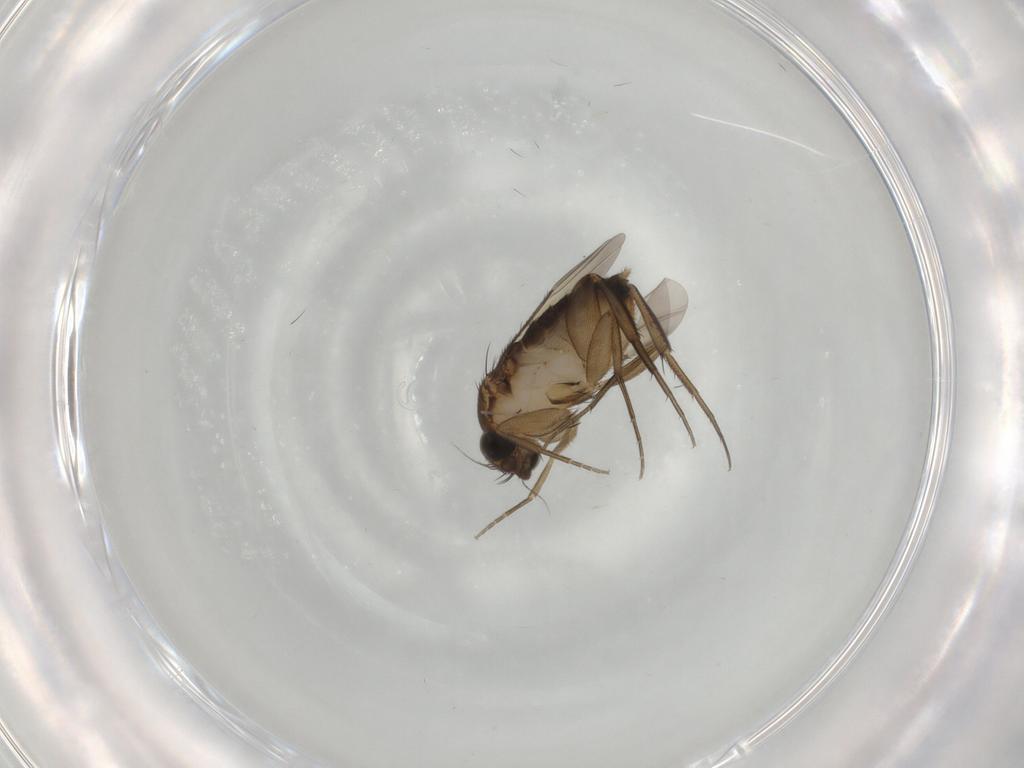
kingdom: Animalia
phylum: Arthropoda
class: Insecta
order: Diptera
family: Phoridae
